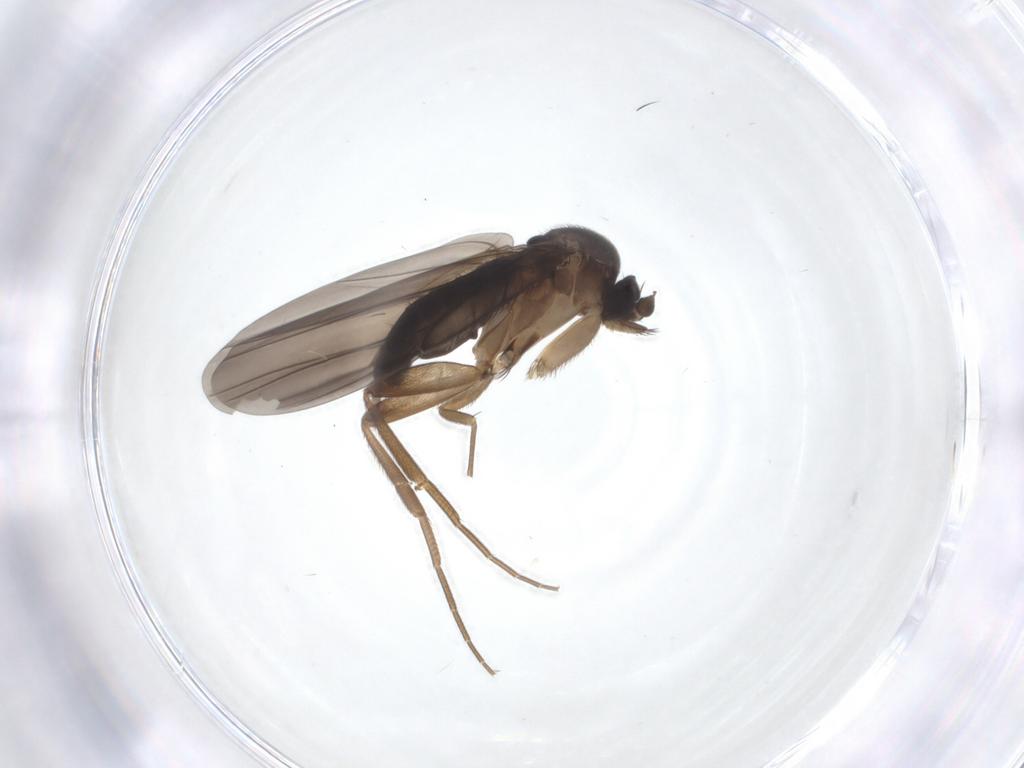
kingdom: Animalia
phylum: Arthropoda
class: Insecta
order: Diptera
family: Phoridae
